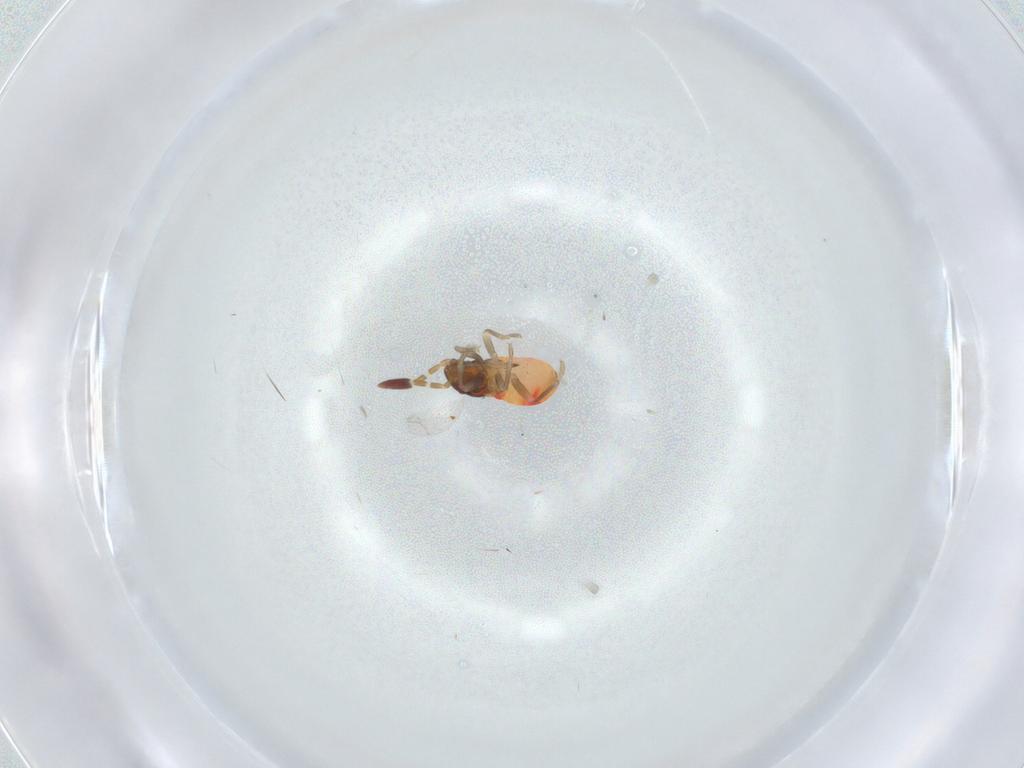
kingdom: Animalia
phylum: Arthropoda
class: Insecta
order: Hemiptera
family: Rhyparochromidae
